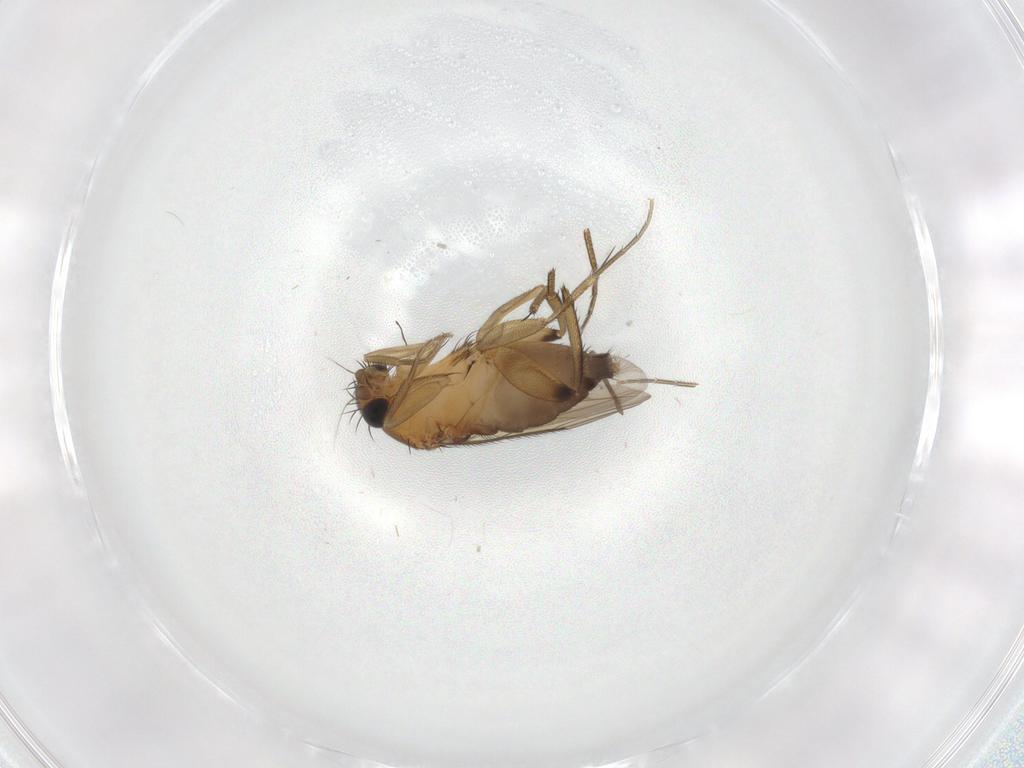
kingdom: Animalia
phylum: Arthropoda
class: Insecta
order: Diptera
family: Phoridae
